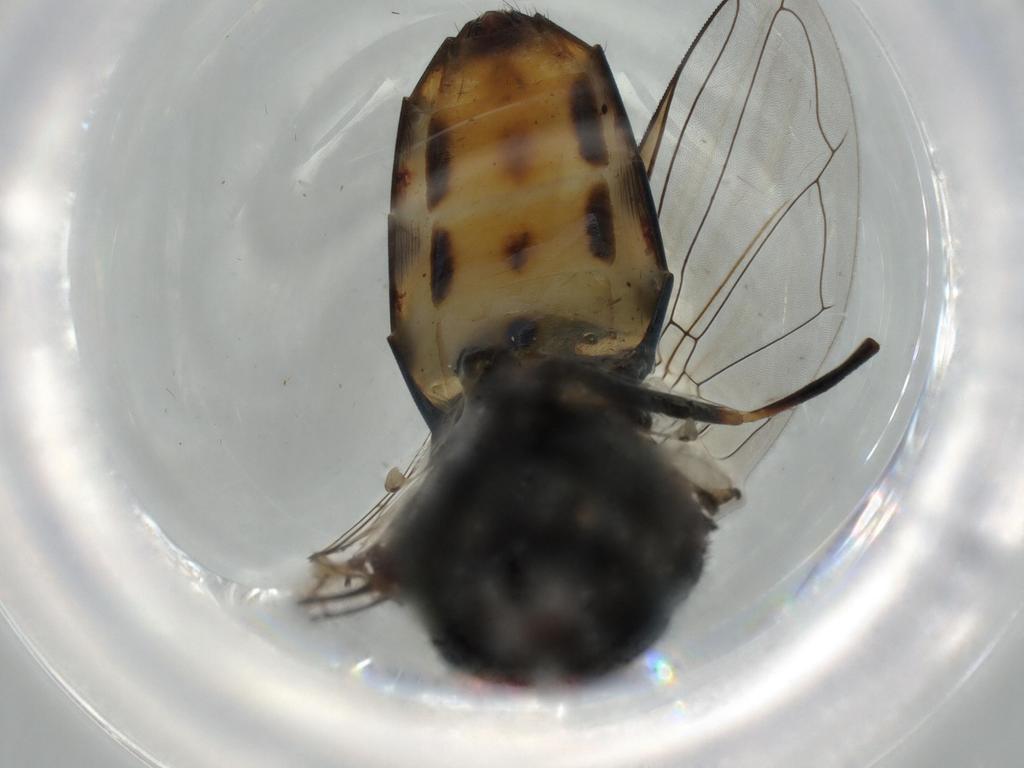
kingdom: Animalia
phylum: Arthropoda
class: Insecta
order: Diptera
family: Syrphidae
